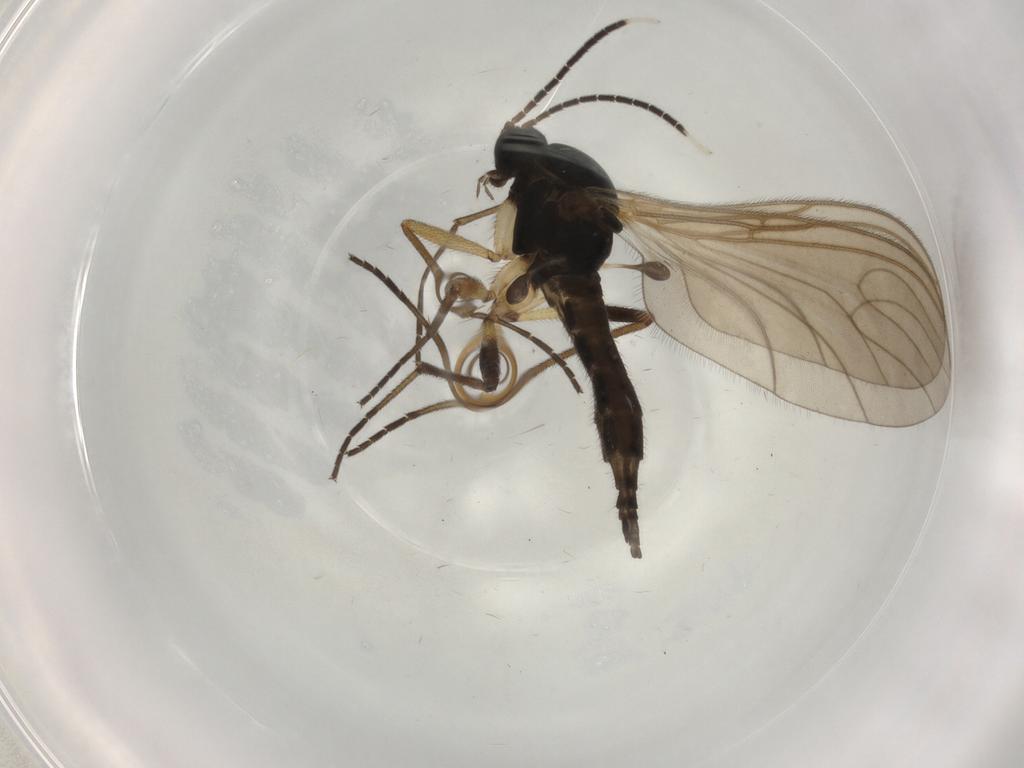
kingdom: Animalia
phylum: Arthropoda
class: Insecta
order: Diptera
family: Sciaridae
